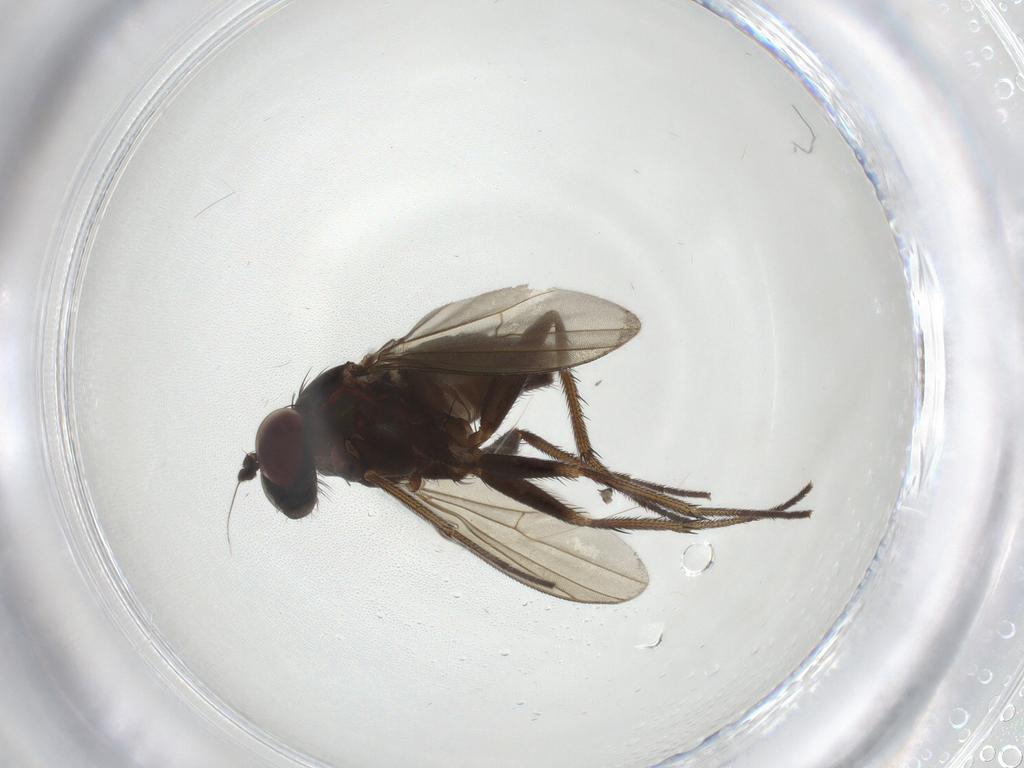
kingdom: Animalia
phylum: Arthropoda
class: Insecta
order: Diptera
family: Dolichopodidae
